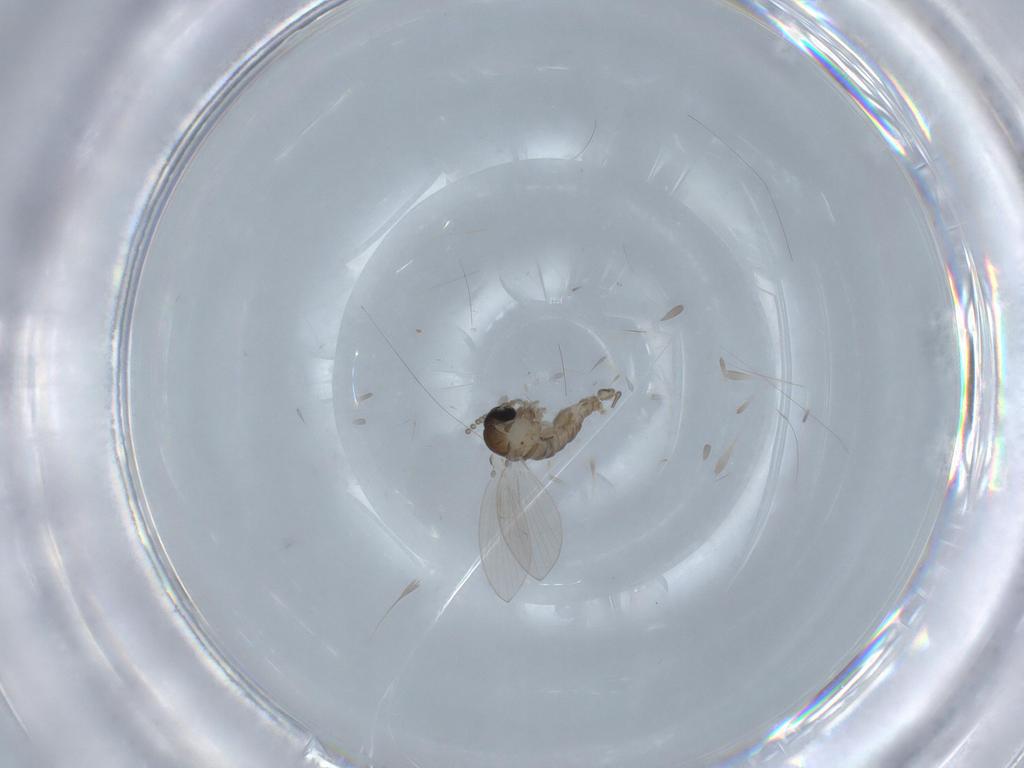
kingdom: Animalia
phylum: Arthropoda
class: Insecta
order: Diptera
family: Psychodidae
